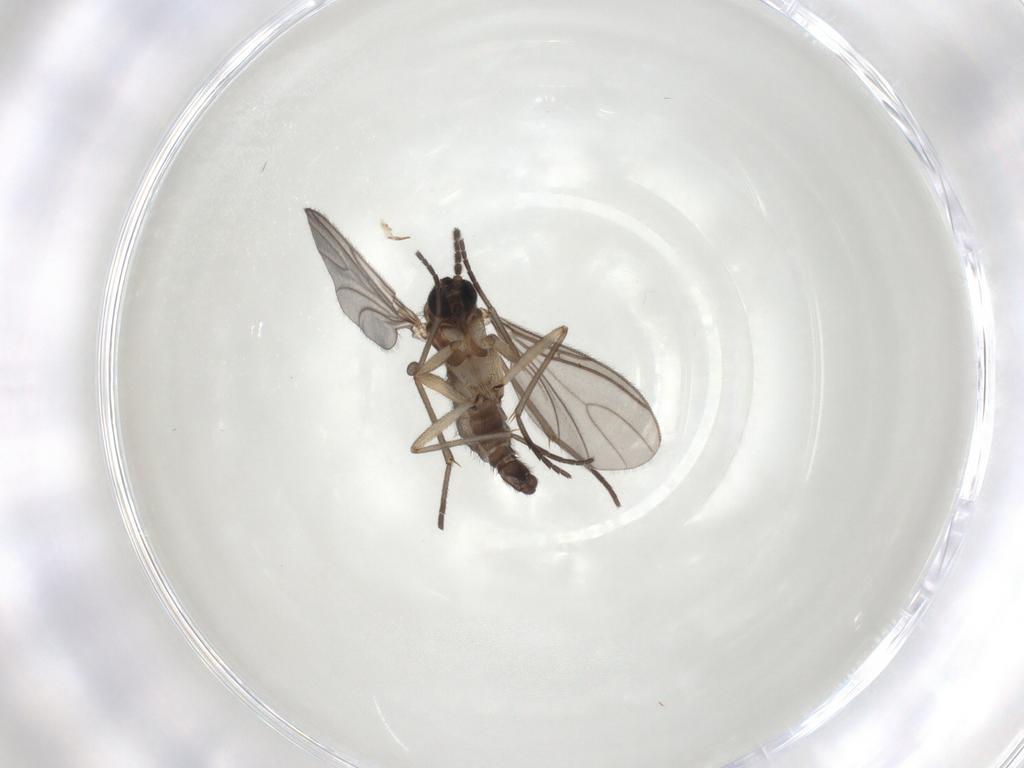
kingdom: Animalia
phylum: Arthropoda
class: Insecta
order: Diptera
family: Sciaridae
